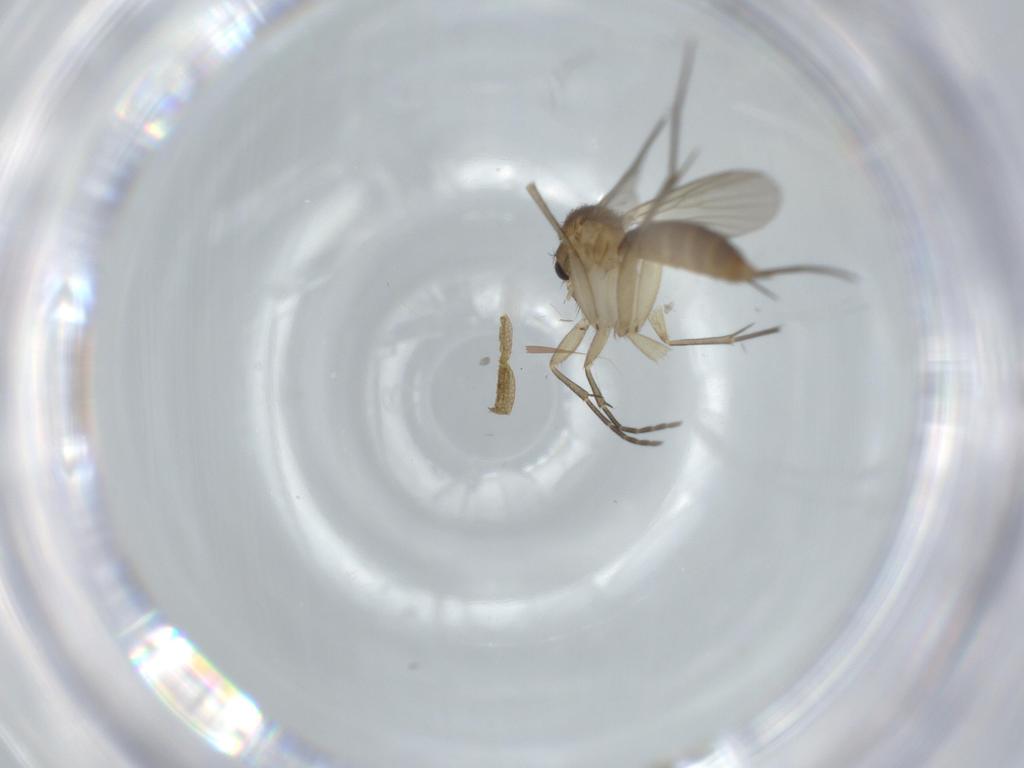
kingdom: Animalia
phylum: Arthropoda
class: Insecta
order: Diptera
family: Mycetophilidae
